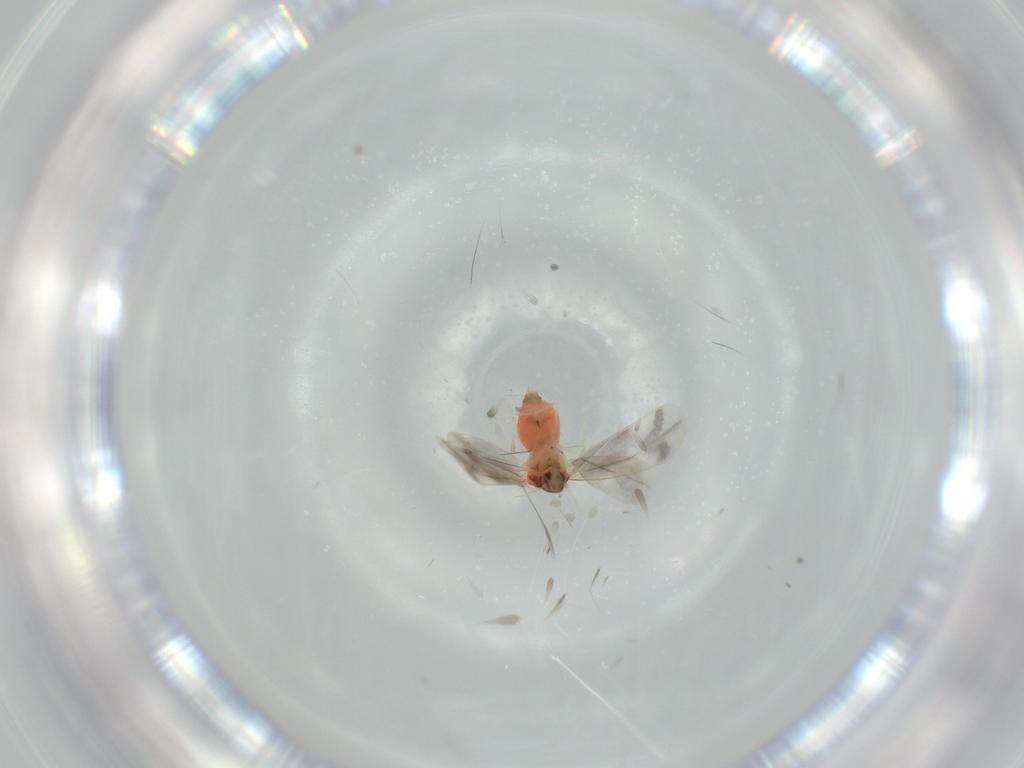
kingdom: Animalia
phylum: Arthropoda
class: Insecta
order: Hemiptera
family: Aleyrodidae
